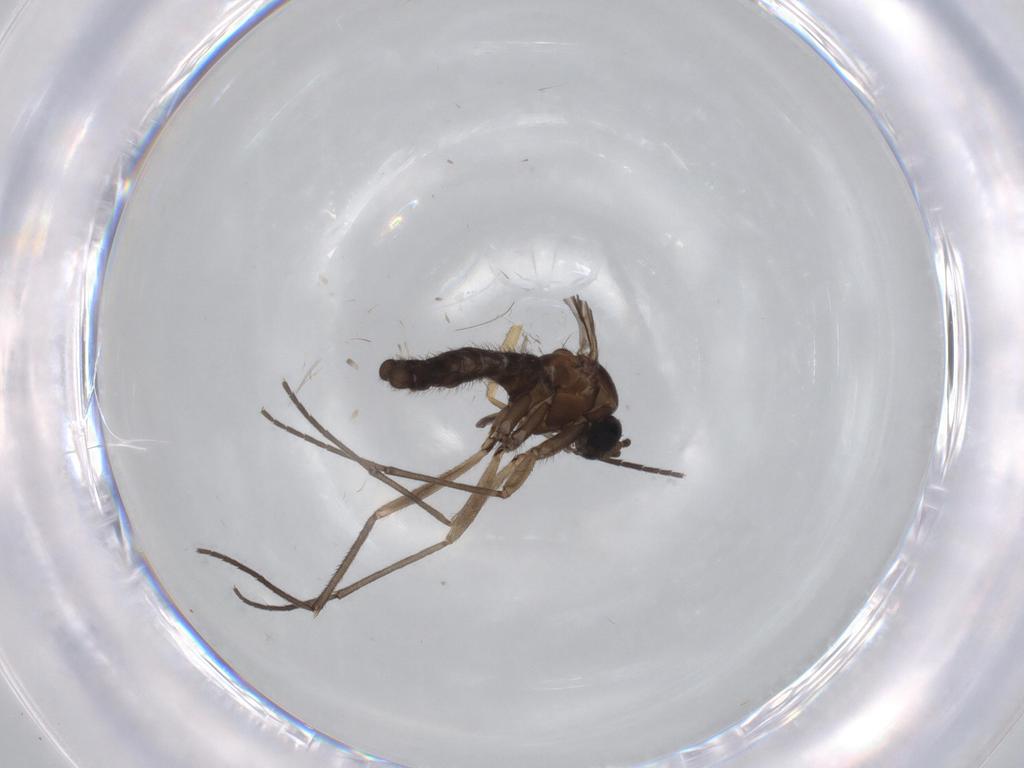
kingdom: Animalia
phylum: Arthropoda
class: Insecta
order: Diptera
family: Sciaridae
